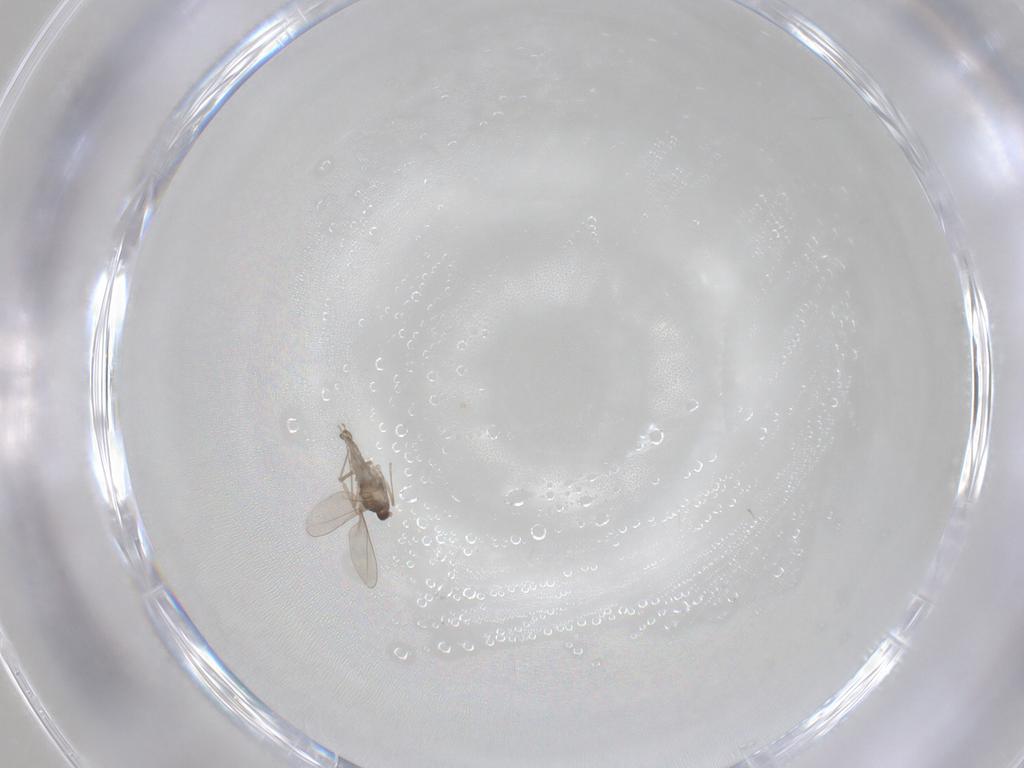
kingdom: Animalia
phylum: Arthropoda
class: Insecta
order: Diptera
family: Cecidomyiidae
